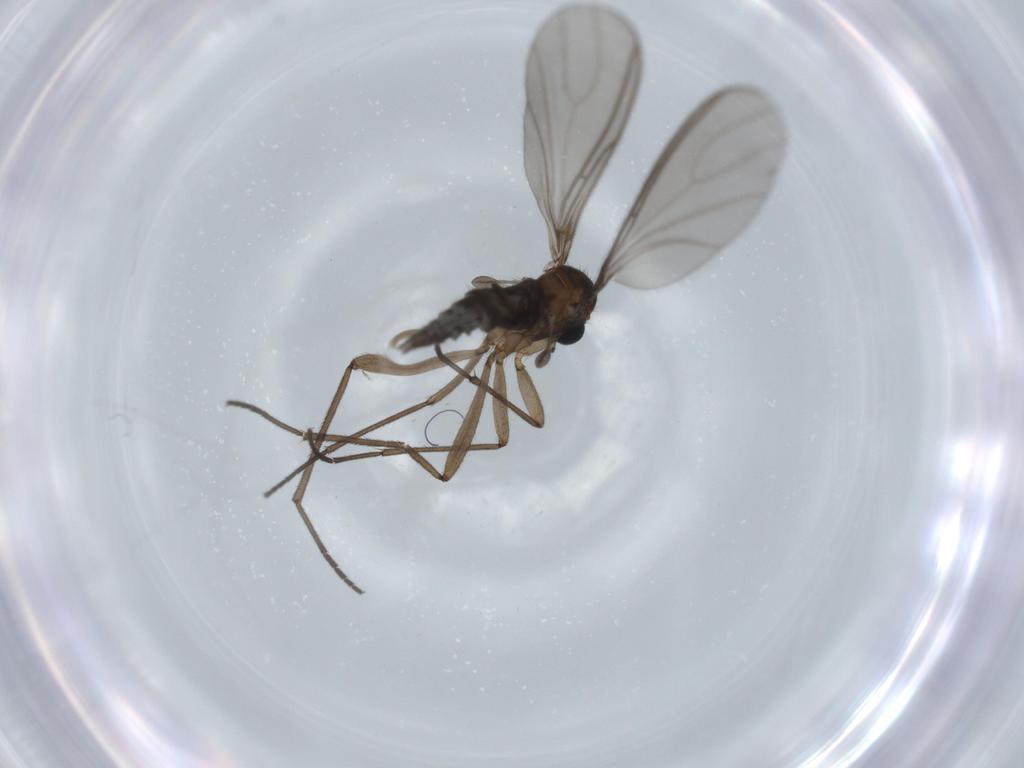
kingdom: Animalia
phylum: Arthropoda
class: Insecta
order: Diptera
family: Sciaridae
